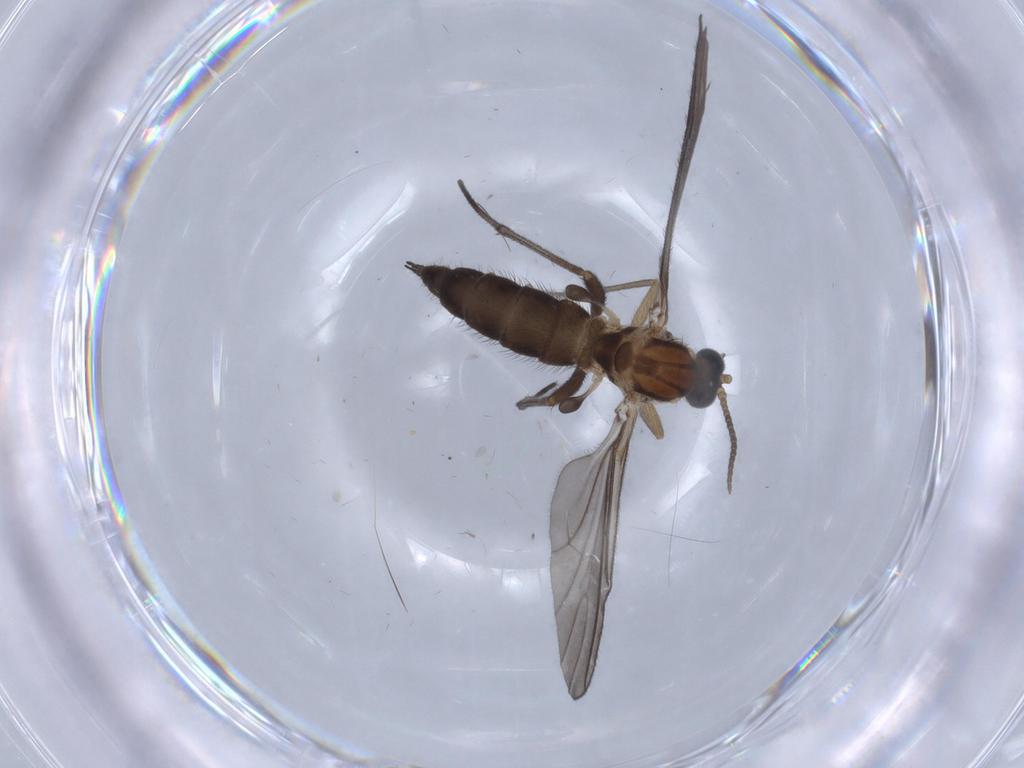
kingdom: Animalia
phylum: Arthropoda
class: Insecta
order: Diptera
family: Sciaridae
